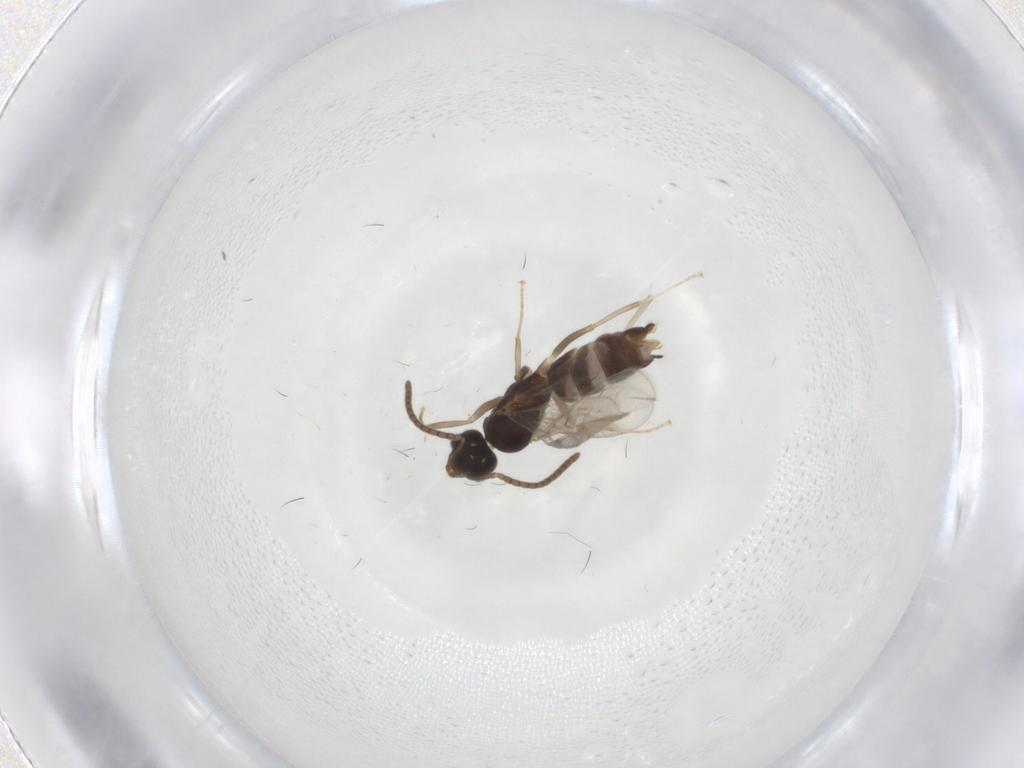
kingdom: Animalia
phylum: Arthropoda
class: Insecta
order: Hymenoptera
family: Formicidae
